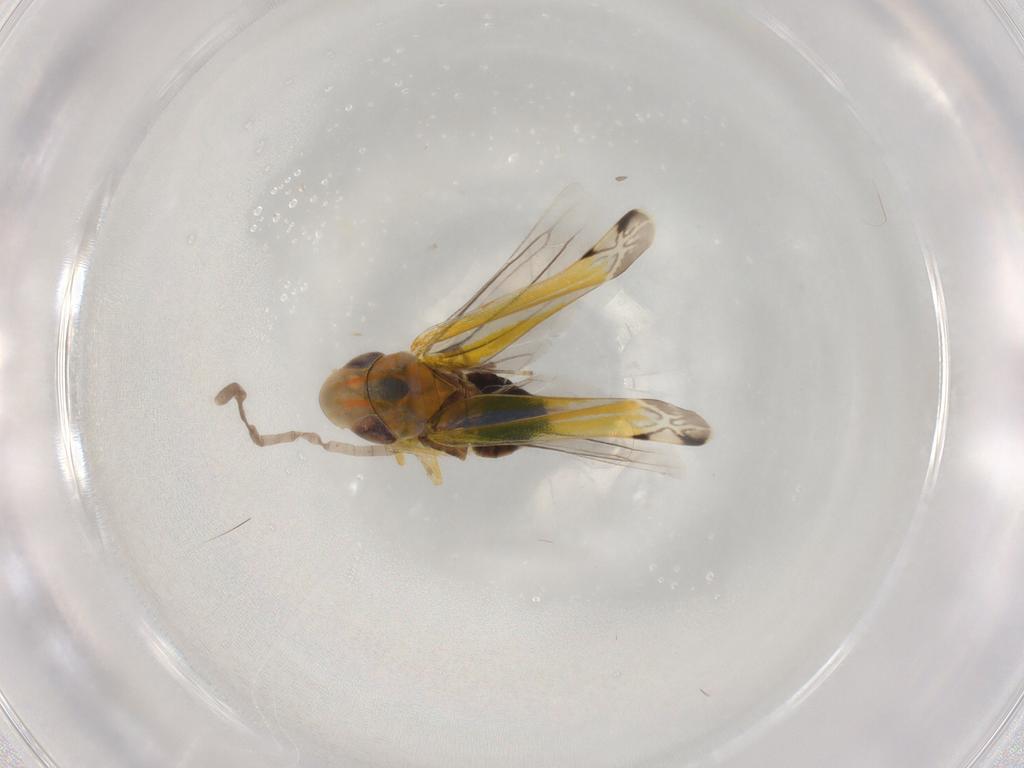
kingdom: Animalia
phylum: Arthropoda
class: Insecta
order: Hemiptera
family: Cicadellidae
